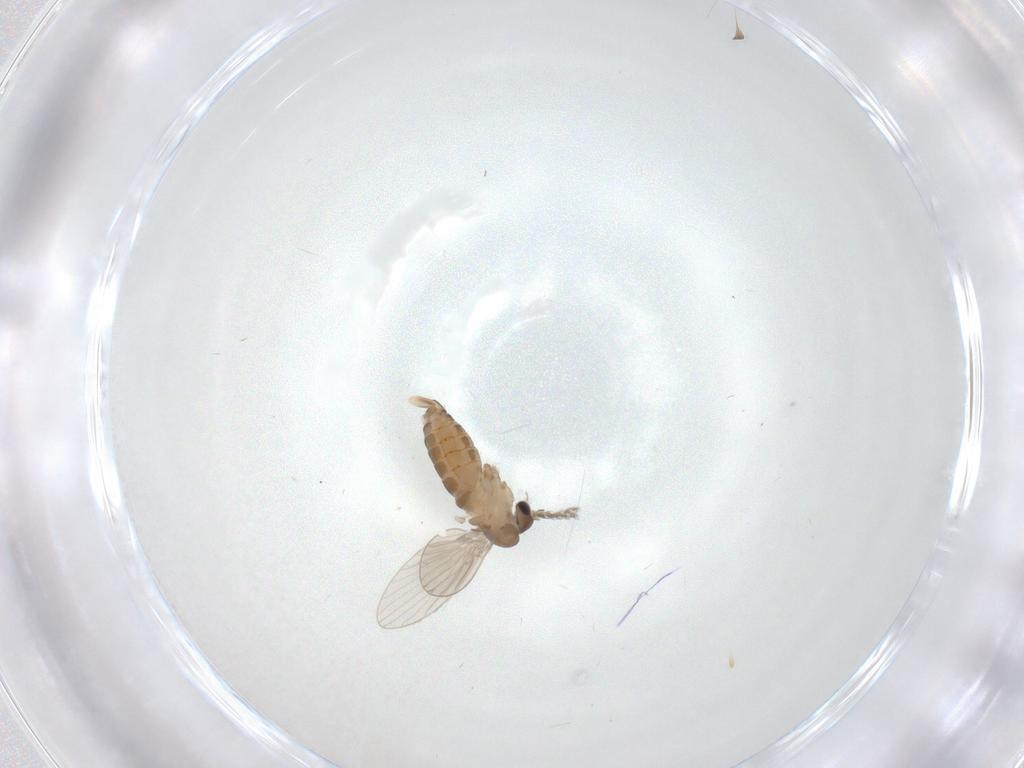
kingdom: Animalia
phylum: Arthropoda
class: Insecta
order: Diptera
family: Psychodidae
